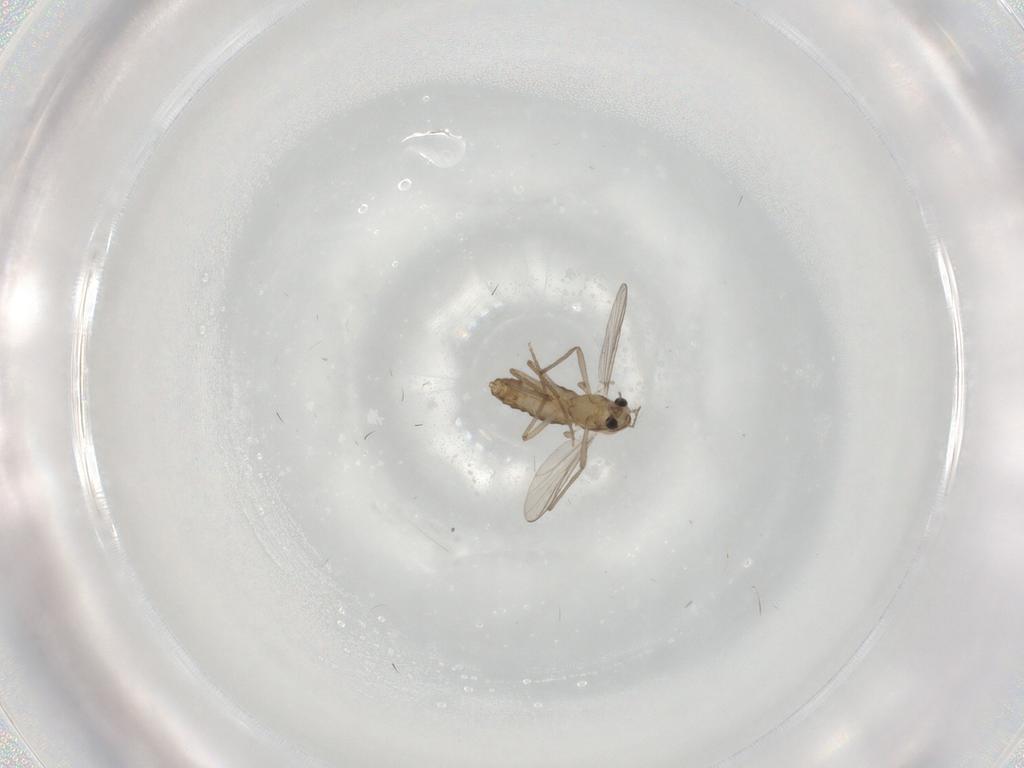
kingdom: Animalia
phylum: Arthropoda
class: Insecta
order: Diptera
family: Chironomidae
